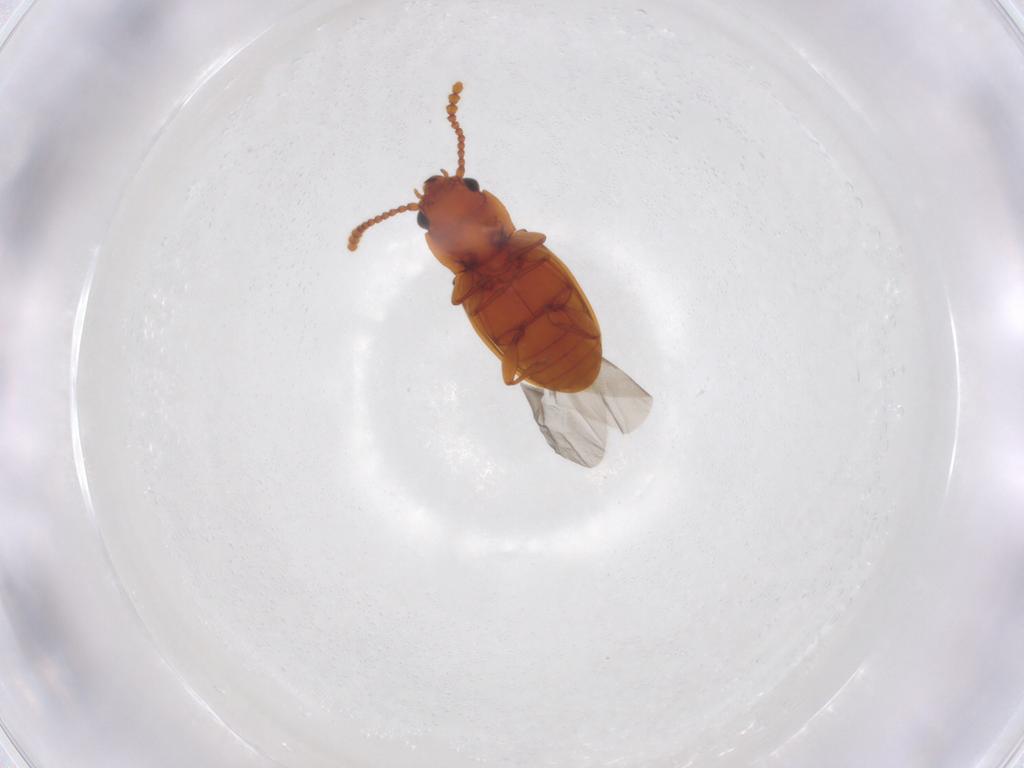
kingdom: Animalia
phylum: Arthropoda
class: Insecta
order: Coleoptera
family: Laemophloeidae
